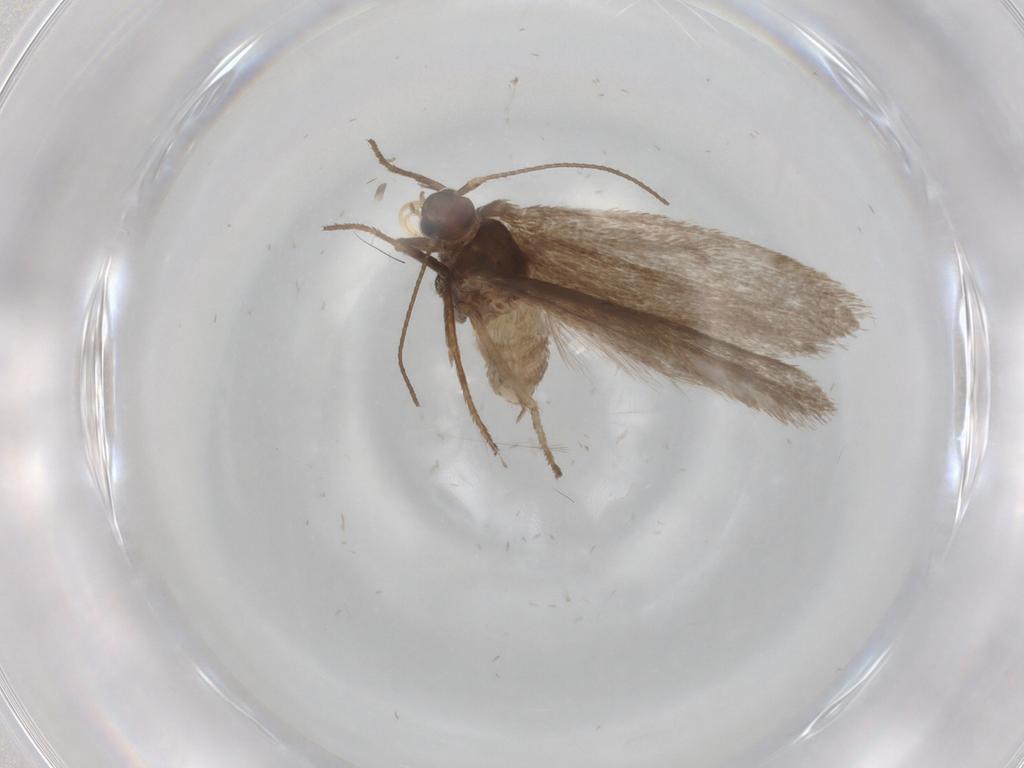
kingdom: Animalia
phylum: Arthropoda
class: Insecta
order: Lepidoptera
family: Limacodidae
